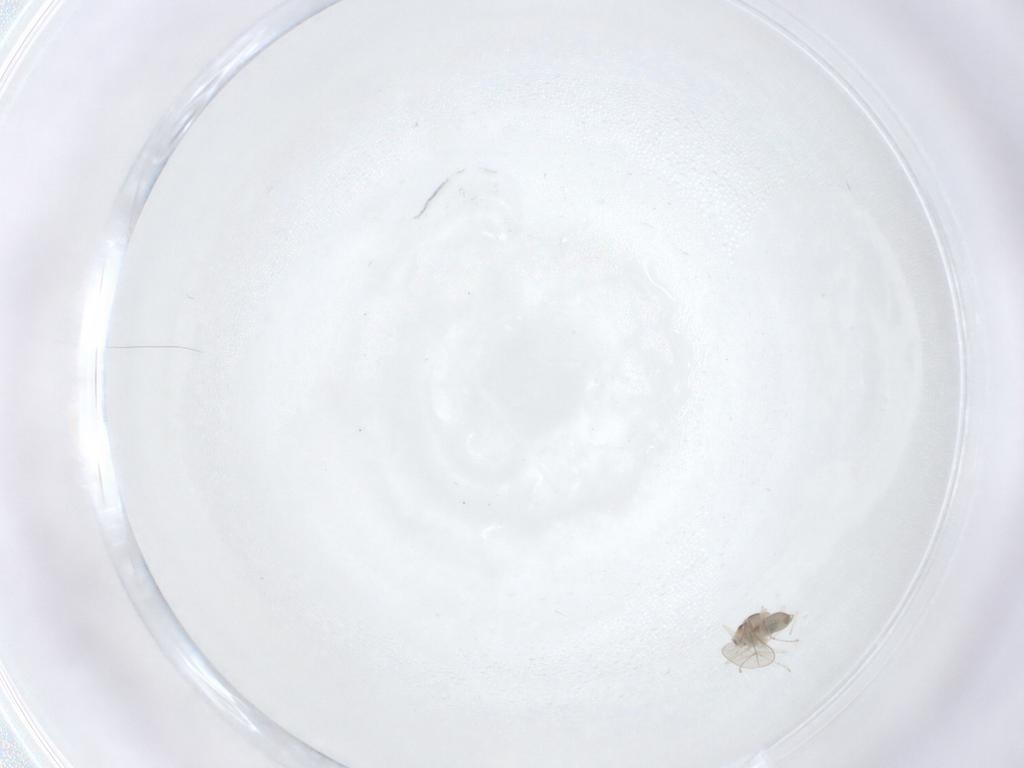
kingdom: Animalia
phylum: Arthropoda
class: Insecta
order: Diptera
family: Cecidomyiidae
